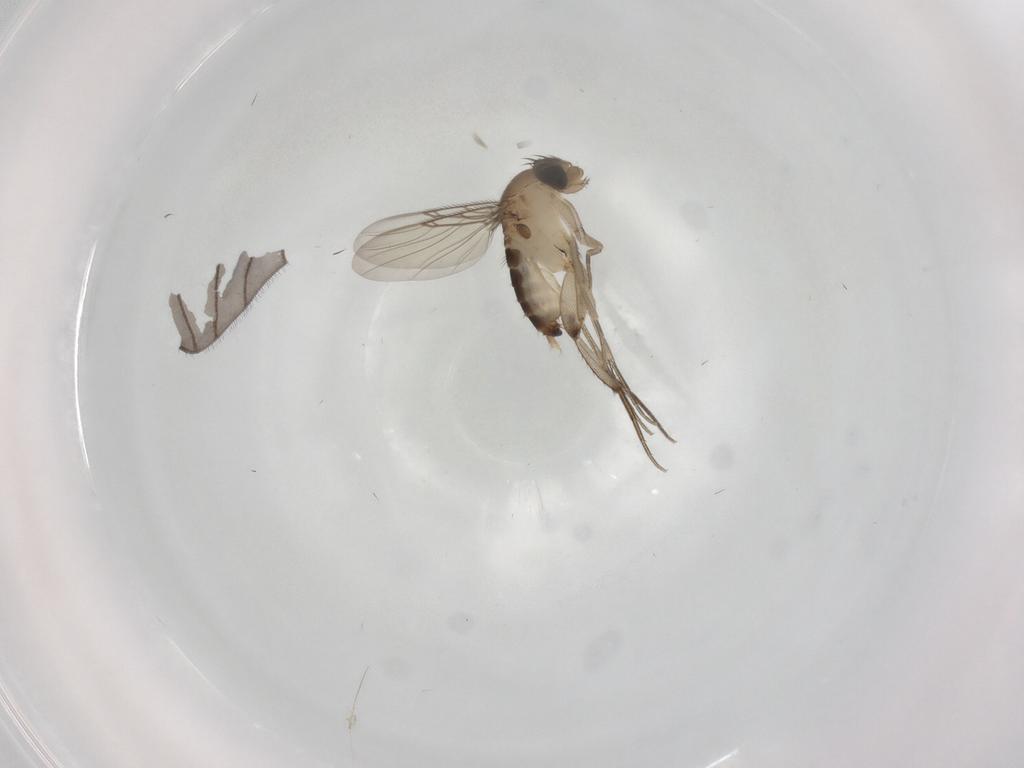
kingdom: Animalia
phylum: Arthropoda
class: Insecta
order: Diptera
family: Phoridae
